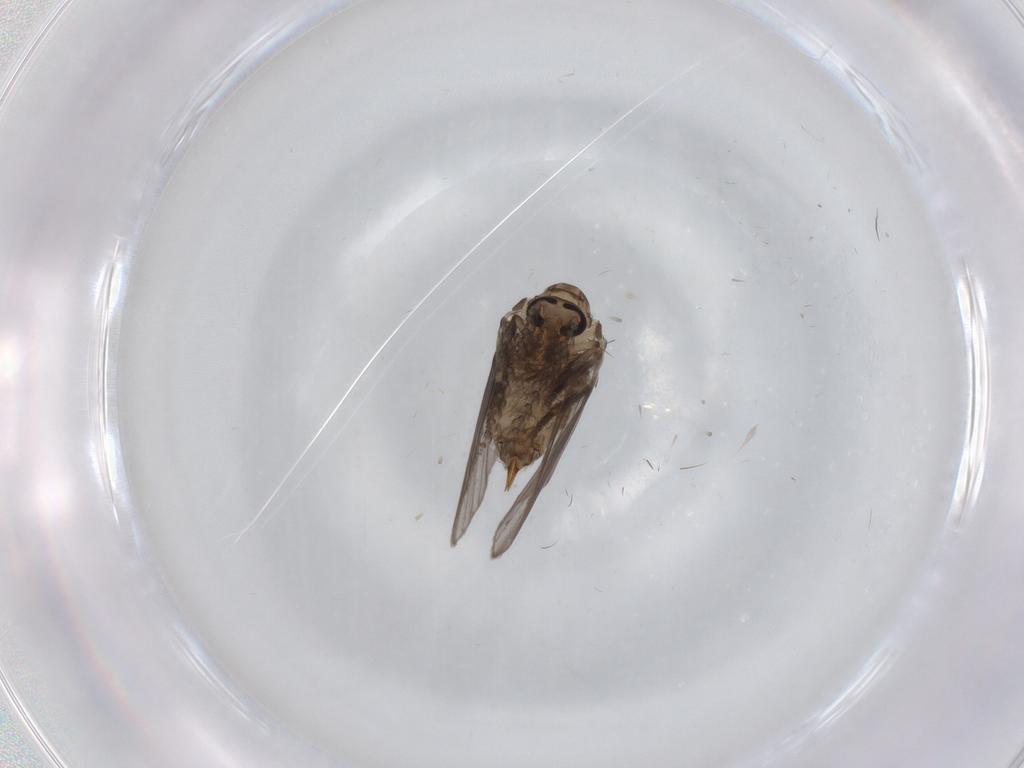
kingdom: Animalia
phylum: Arthropoda
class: Insecta
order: Diptera
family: Psychodidae
